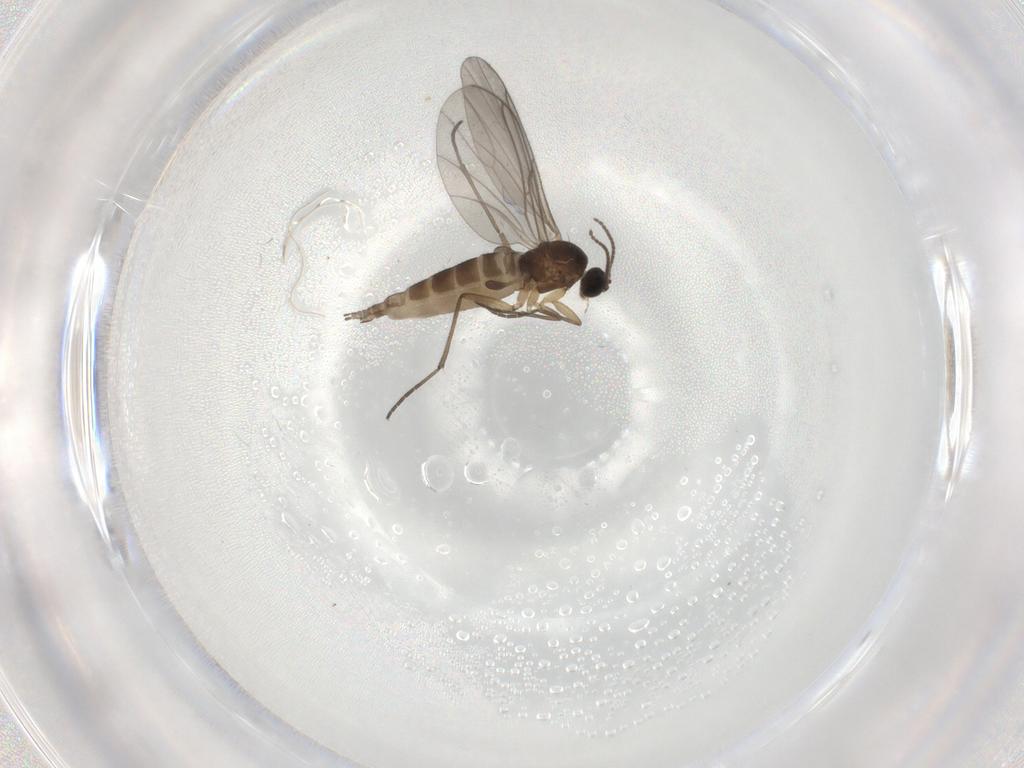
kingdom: Animalia
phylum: Arthropoda
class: Insecta
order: Diptera
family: Sciaridae
